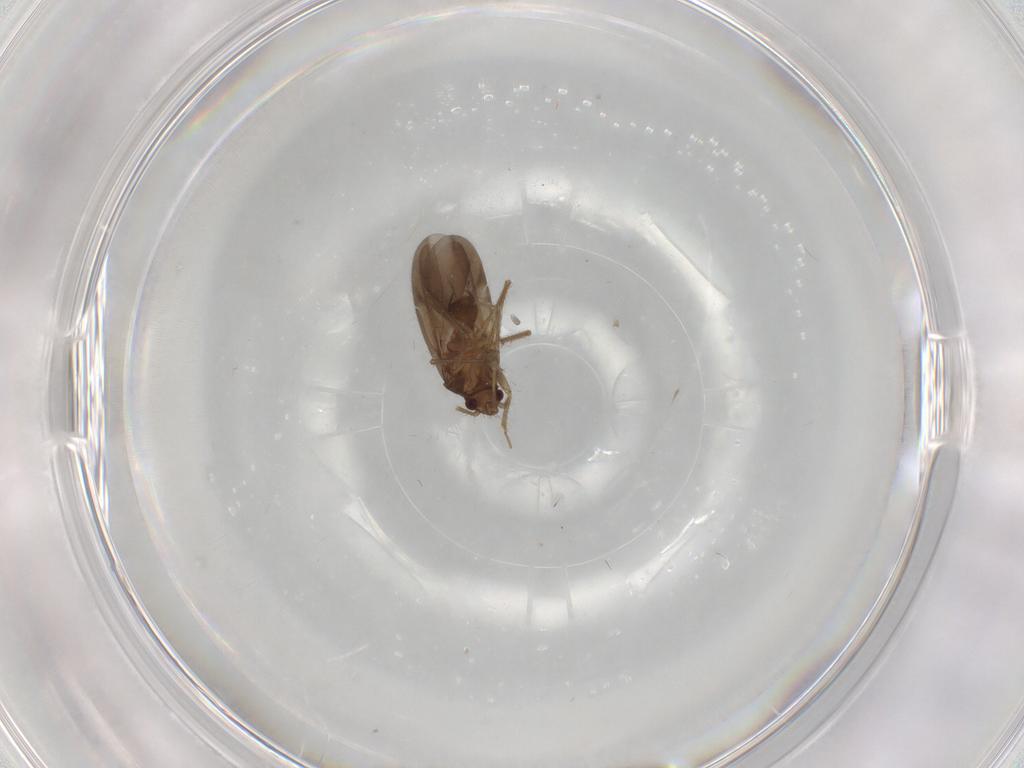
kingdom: Animalia
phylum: Arthropoda
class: Insecta
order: Hemiptera
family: Ceratocombidae
